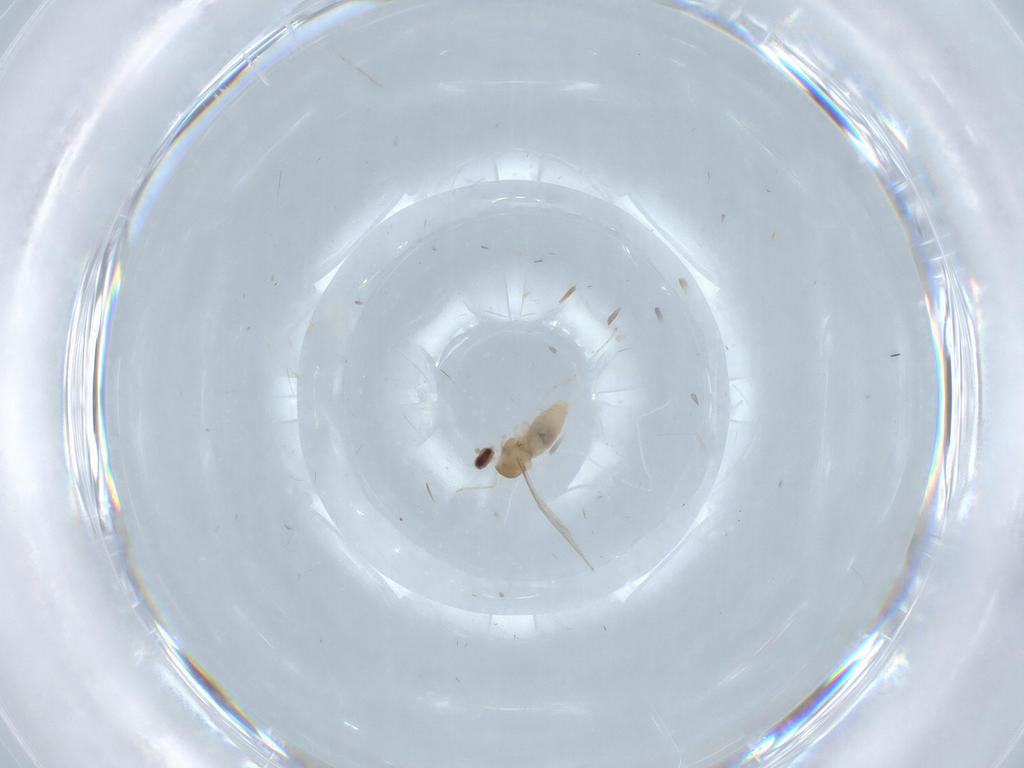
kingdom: Animalia
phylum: Arthropoda
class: Insecta
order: Diptera
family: Cecidomyiidae
